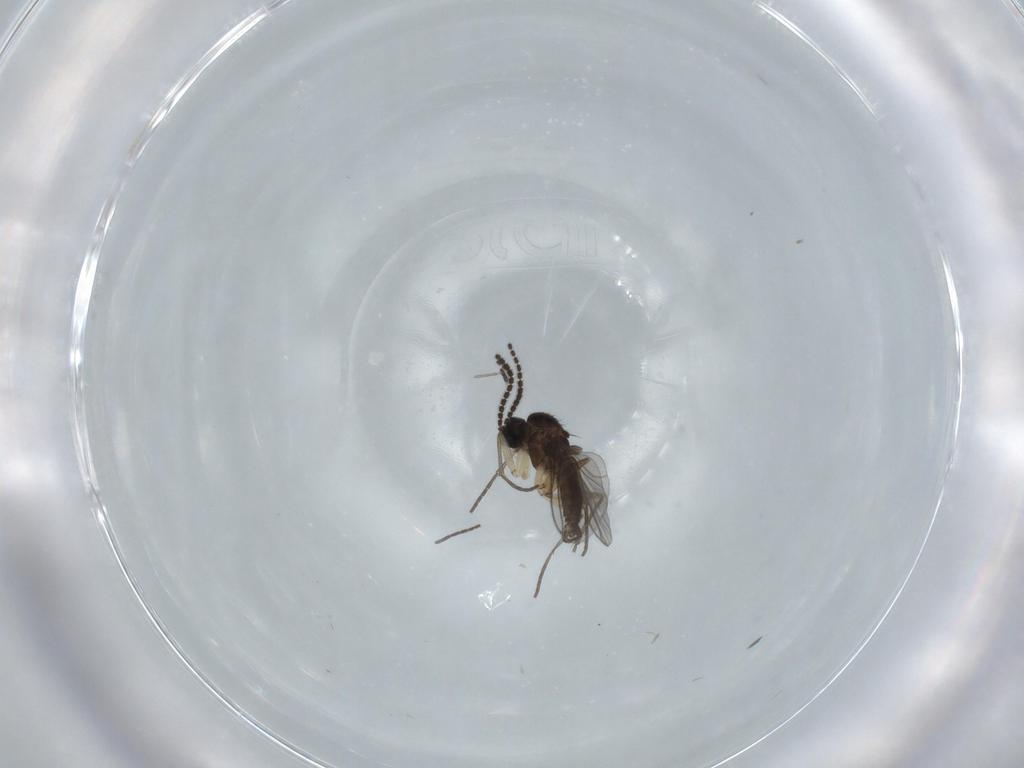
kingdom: Animalia
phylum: Arthropoda
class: Insecta
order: Diptera
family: Sciaridae
